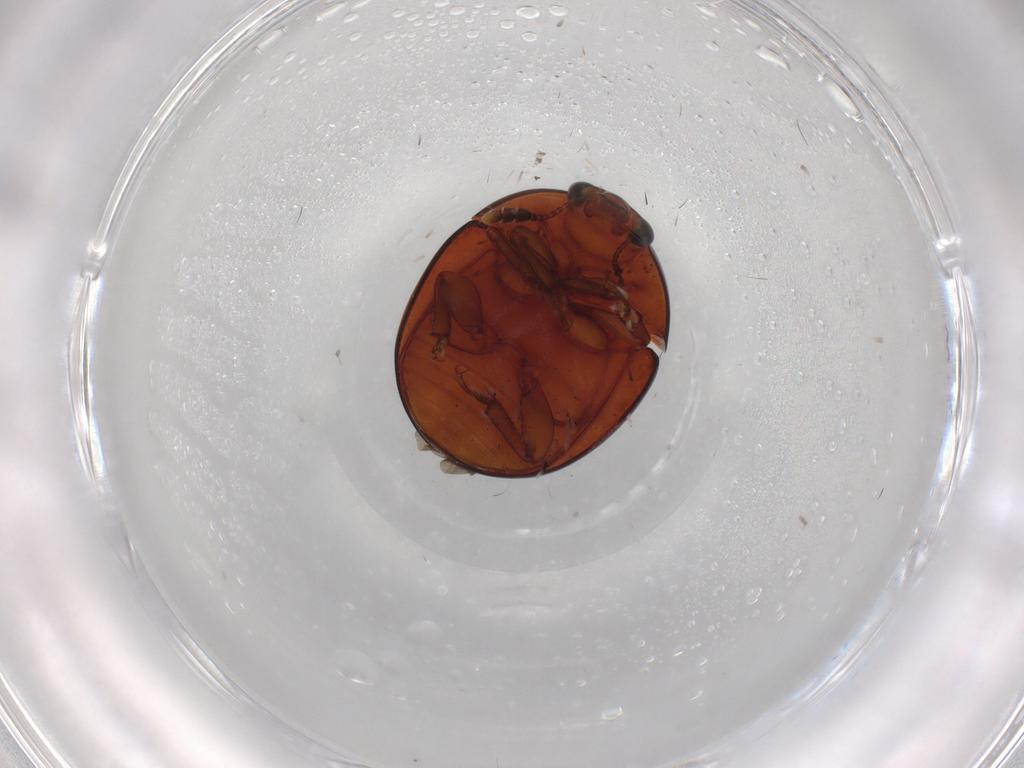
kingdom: Animalia
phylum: Arthropoda
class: Insecta
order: Coleoptera
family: Nitidulidae
